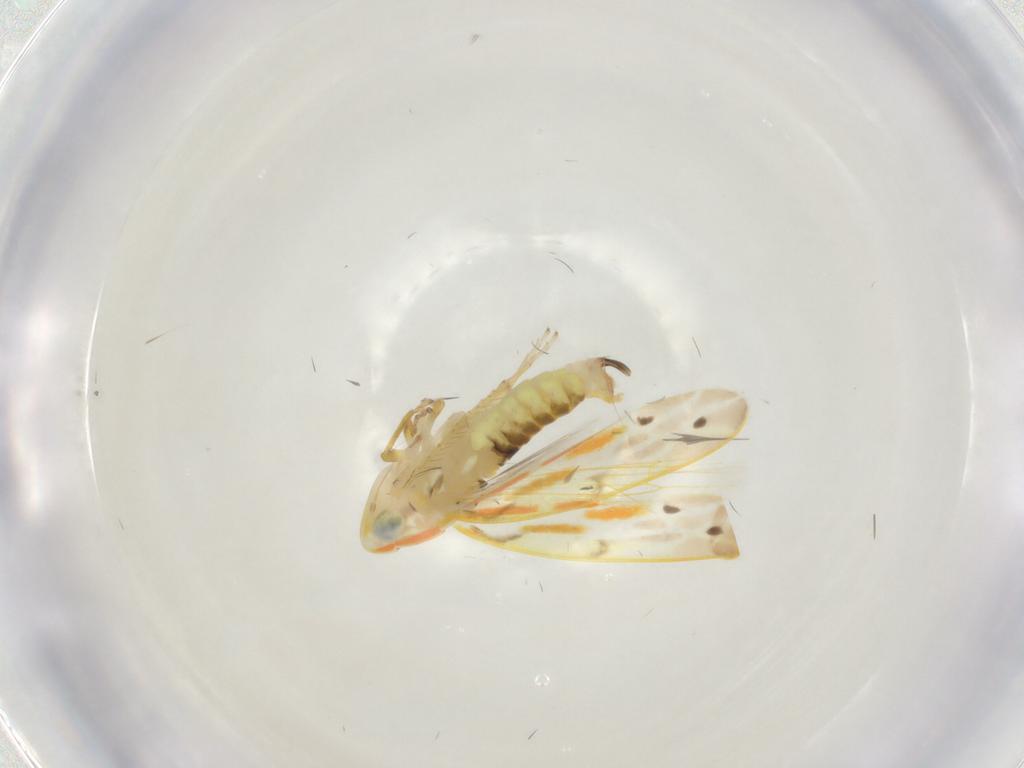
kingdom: Animalia
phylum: Arthropoda
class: Insecta
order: Hemiptera
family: Cicadellidae
